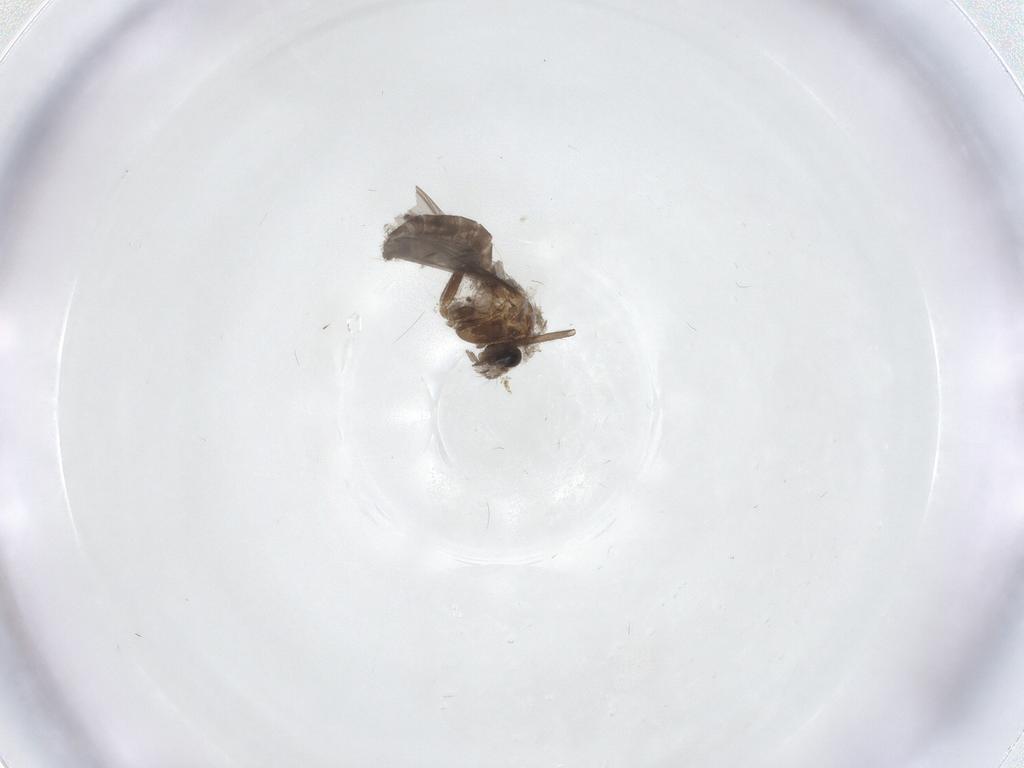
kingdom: Animalia
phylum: Arthropoda
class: Insecta
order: Diptera
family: Chironomidae
